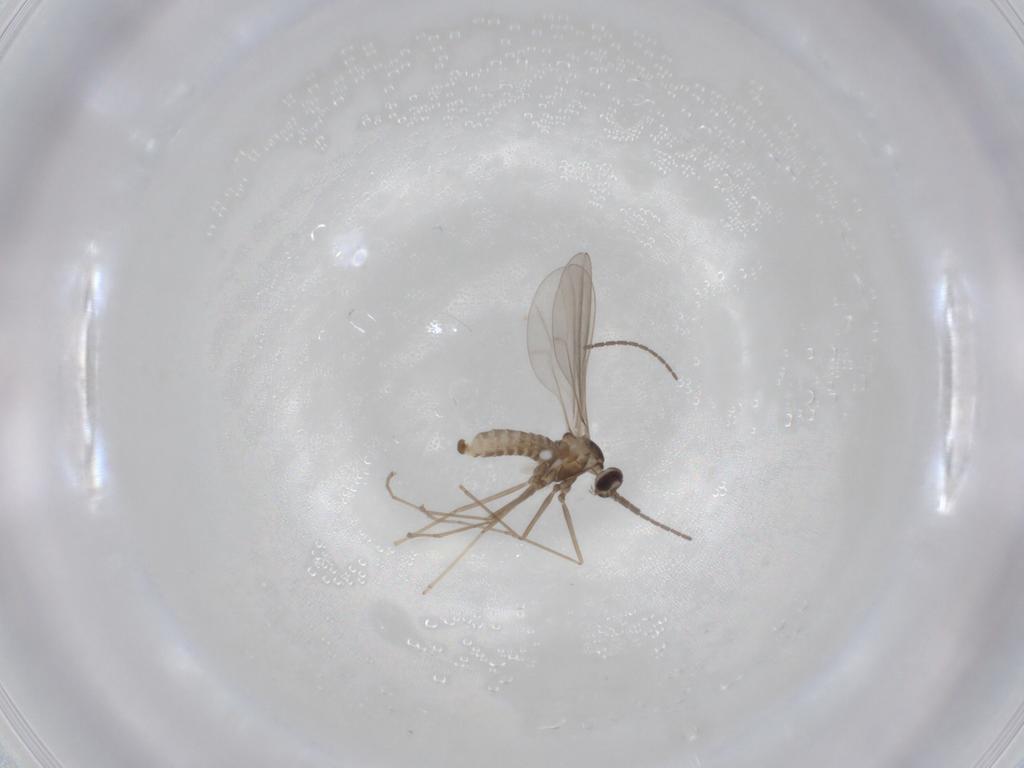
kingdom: Animalia
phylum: Arthropoda
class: Insecta
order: Diptera
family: Cecidomyiidae
